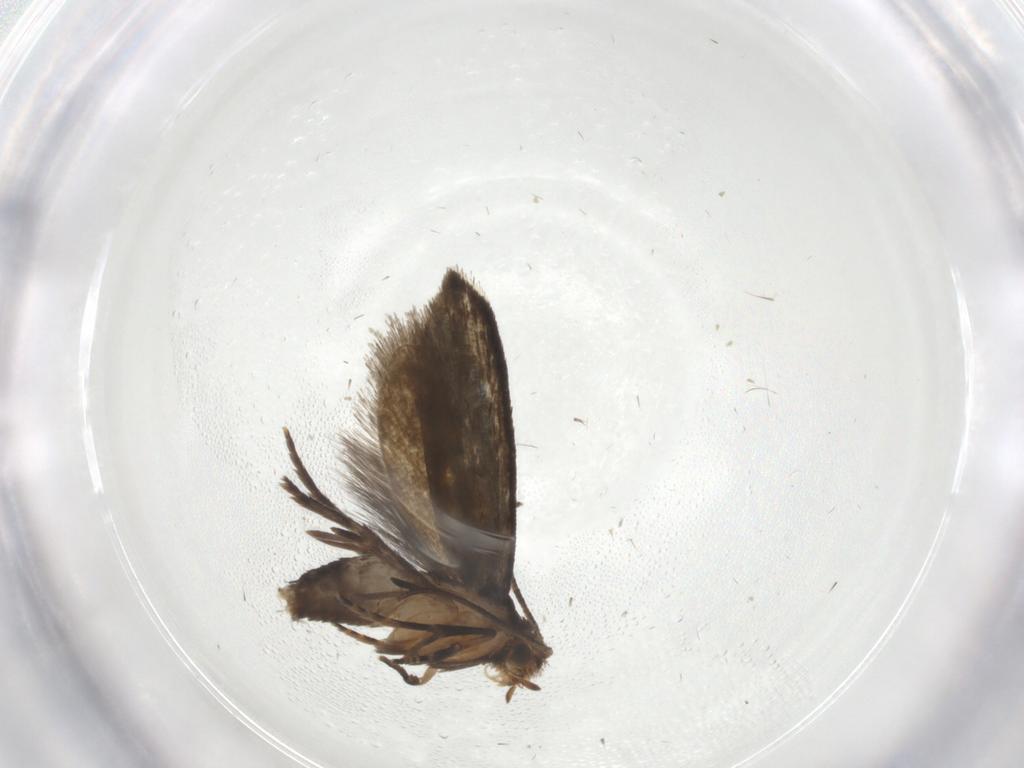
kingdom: Animalia
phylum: Arthropoda
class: Insecta
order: Lepidoptera
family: Tineidae
